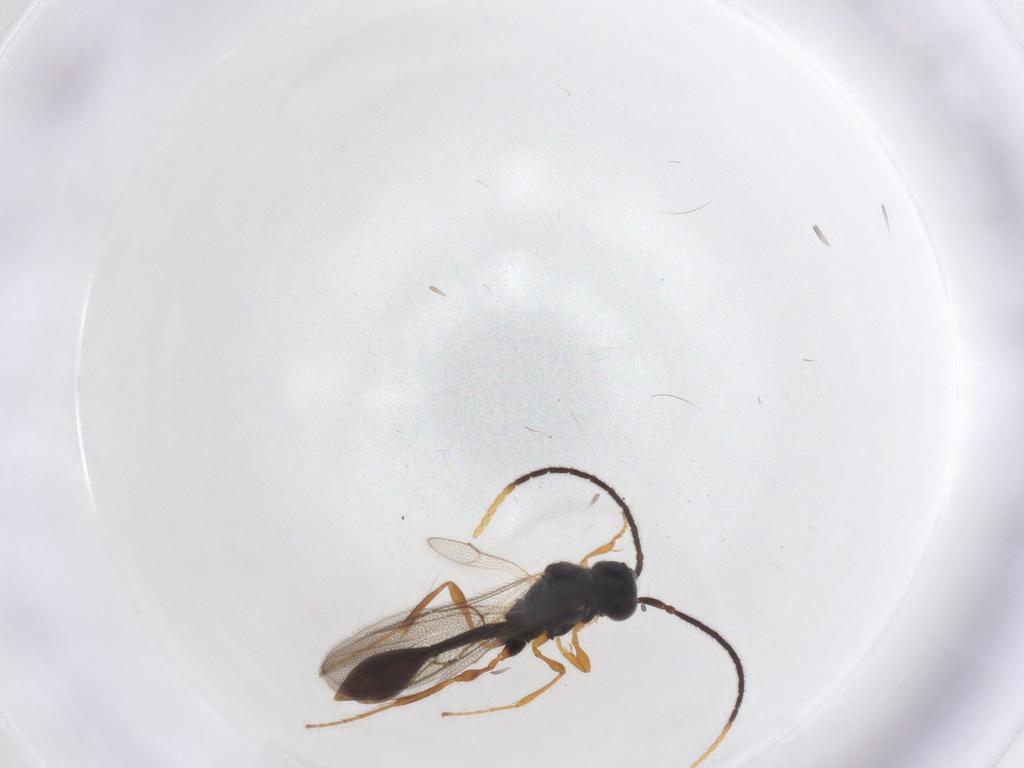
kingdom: Animalia
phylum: Arthropoda
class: Insecta
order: Hymenoptera
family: Diapriidae
